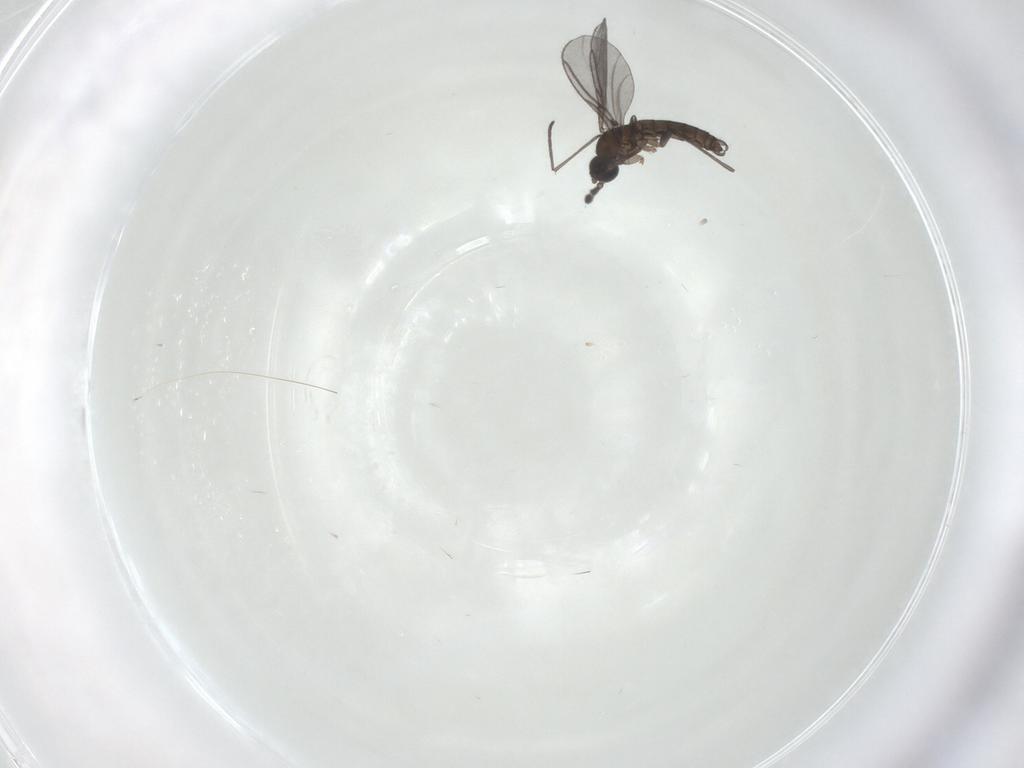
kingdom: Animalia
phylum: Arthropoda
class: Insecta
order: Diptera
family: Drosophilidae
